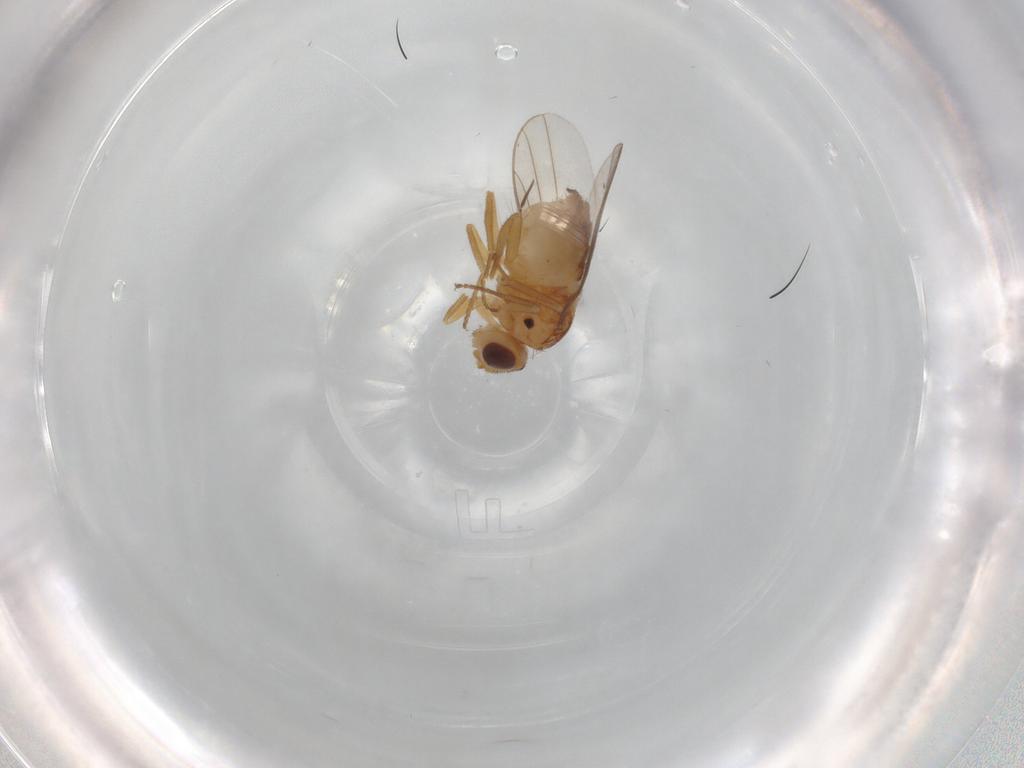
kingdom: Animalia
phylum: Arthropoda
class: Insecta
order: Diptera
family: Chloropidae
